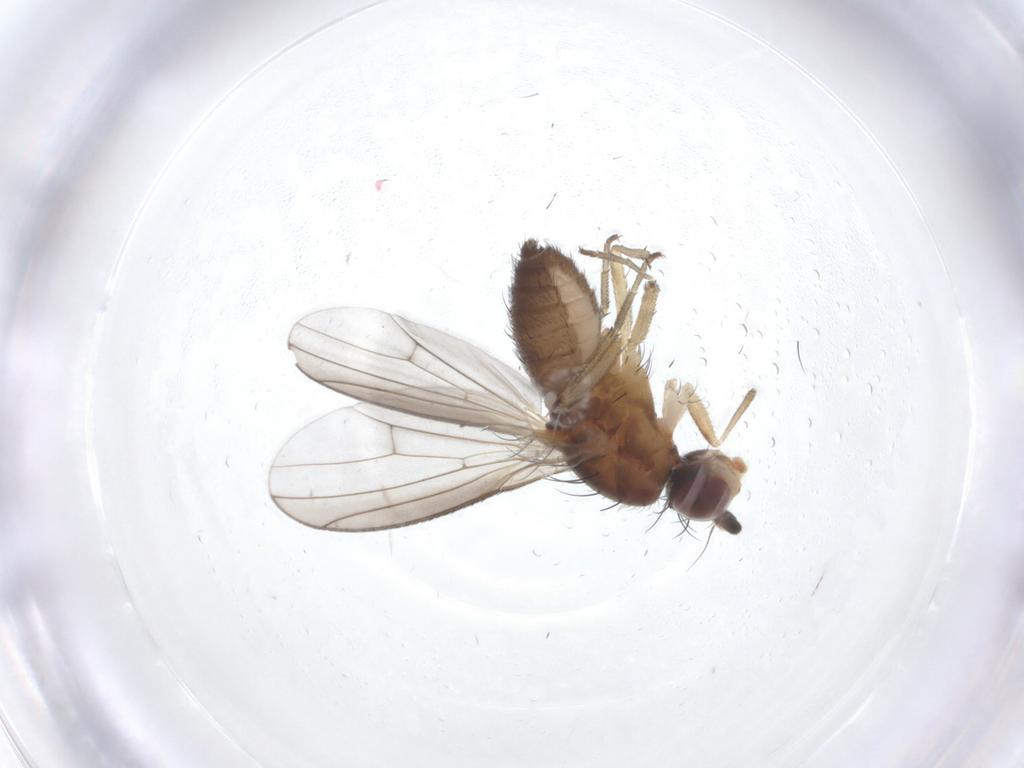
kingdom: Animalia
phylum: Arthropoda
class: Insecta
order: Diptera
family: Heleomyzidae
